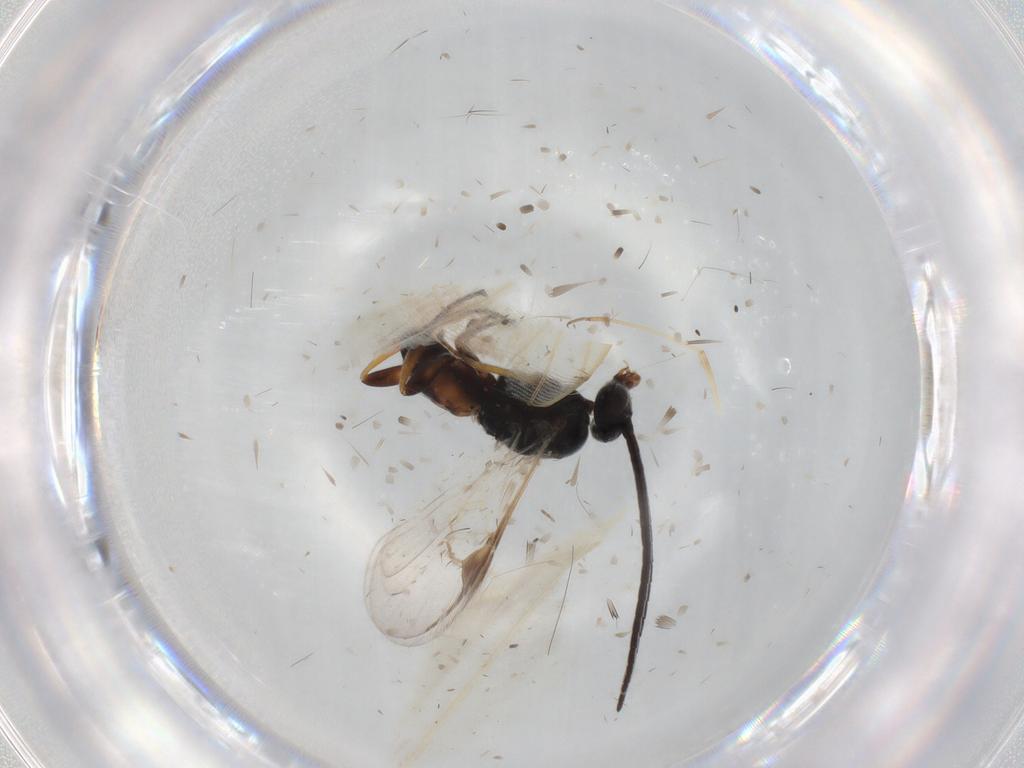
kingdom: Animalia
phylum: Arthropoda
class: Insecta
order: Hymenoptera
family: Braconidae
